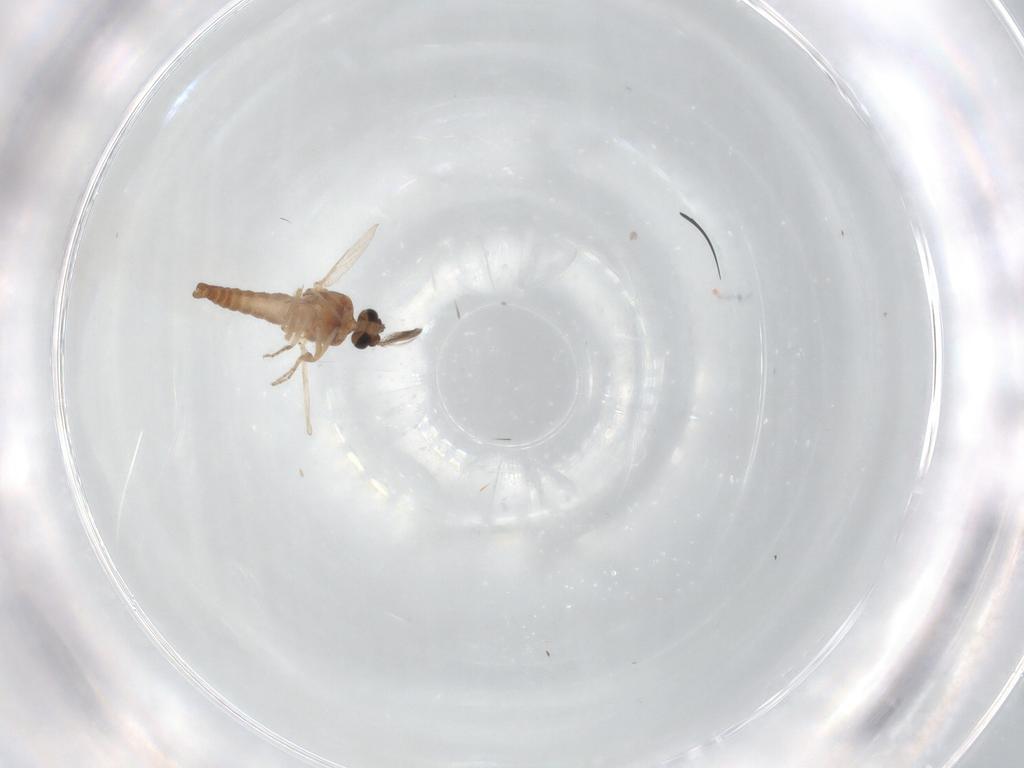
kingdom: Animalia
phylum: Arthropoda
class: Insecta
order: Diptera
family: Ceratopogonidae
